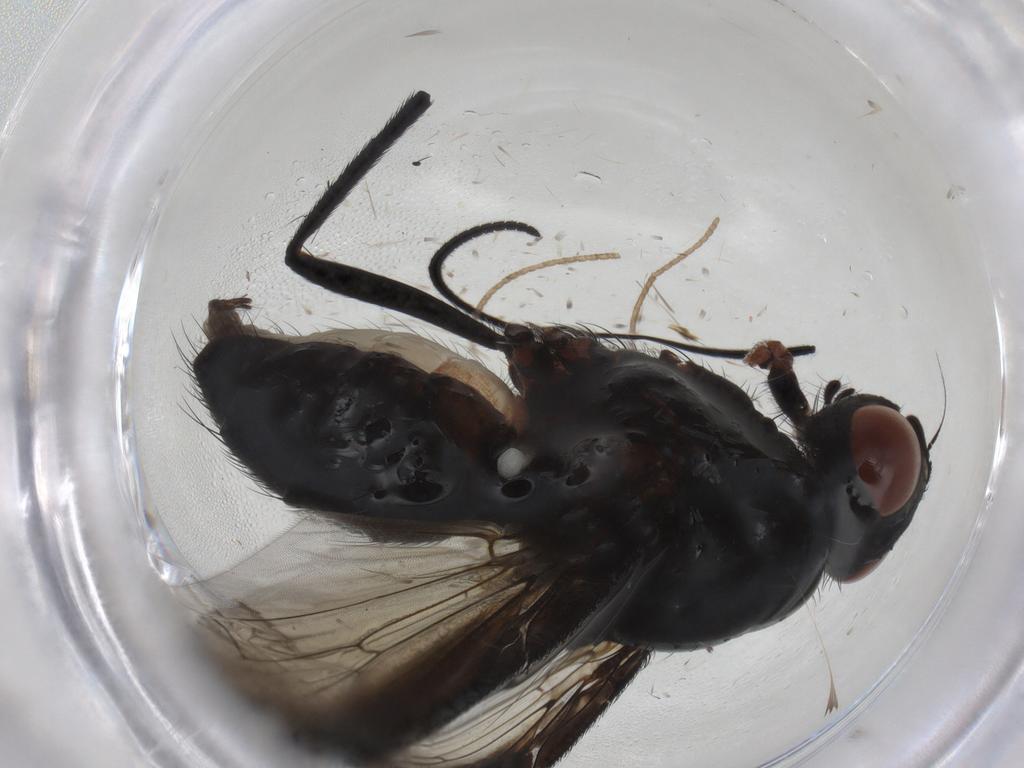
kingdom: Animalia
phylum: Arthropoda
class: Insecta
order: Diptera
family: Anthomyiidae
